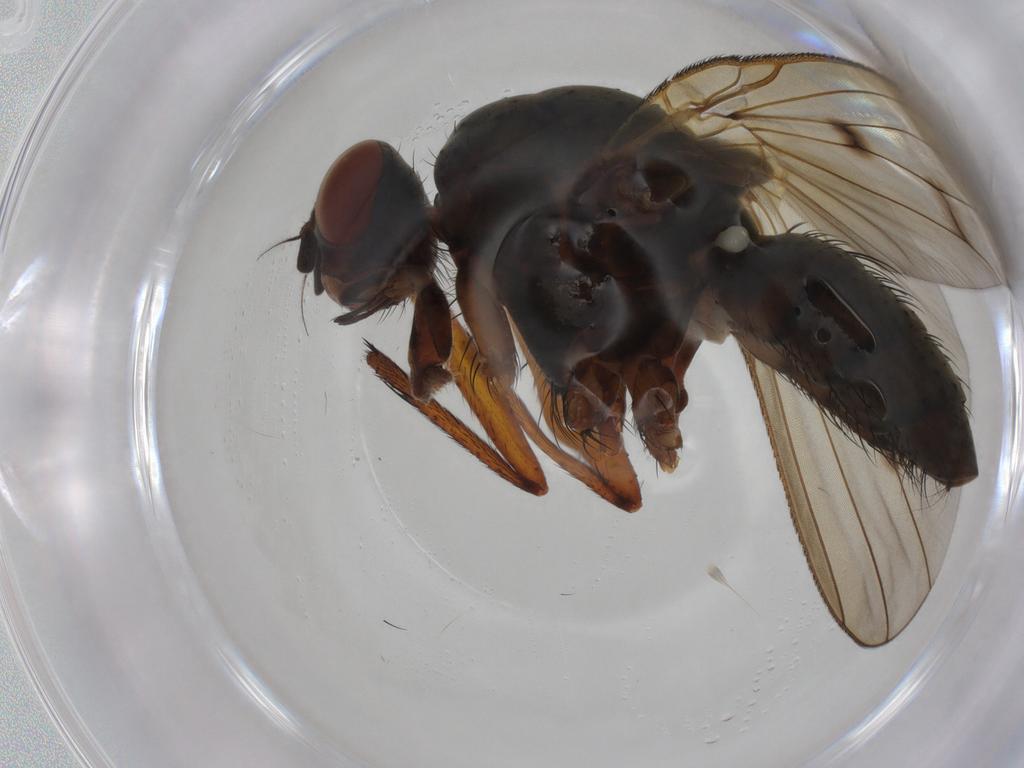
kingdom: Animalia
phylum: Arthropoda
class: Insecta
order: Diptera
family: Anthomyiidae
